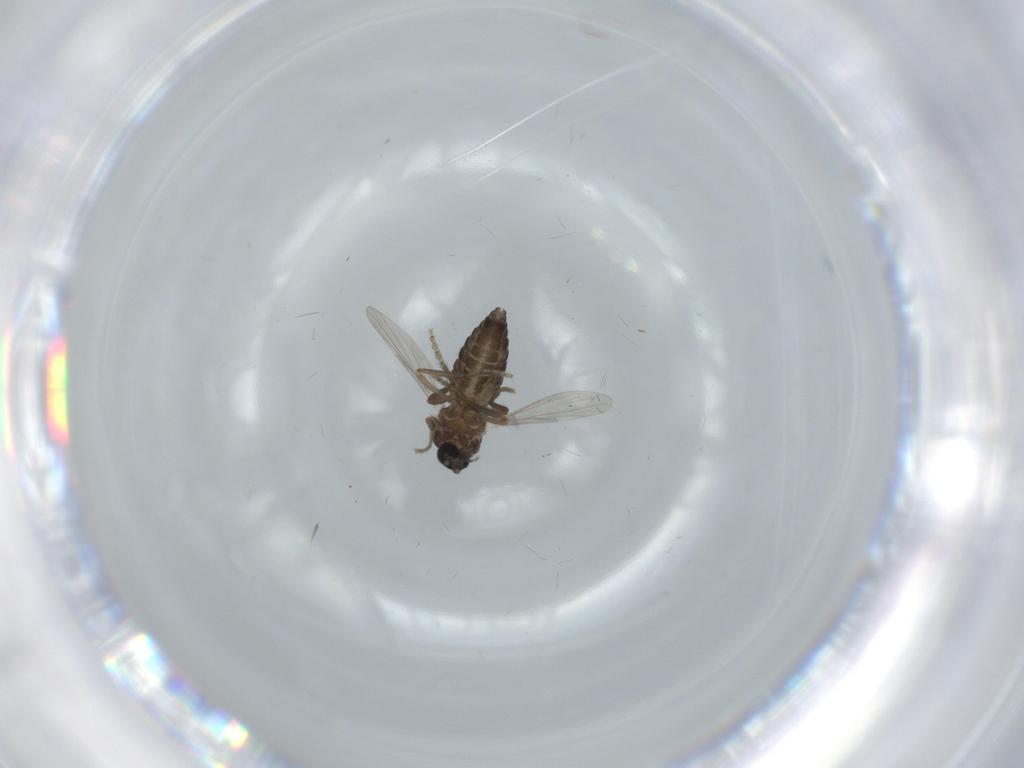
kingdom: Animalia
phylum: Arthropoda
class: Insecta
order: Diptera
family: Ceratopogonidae
